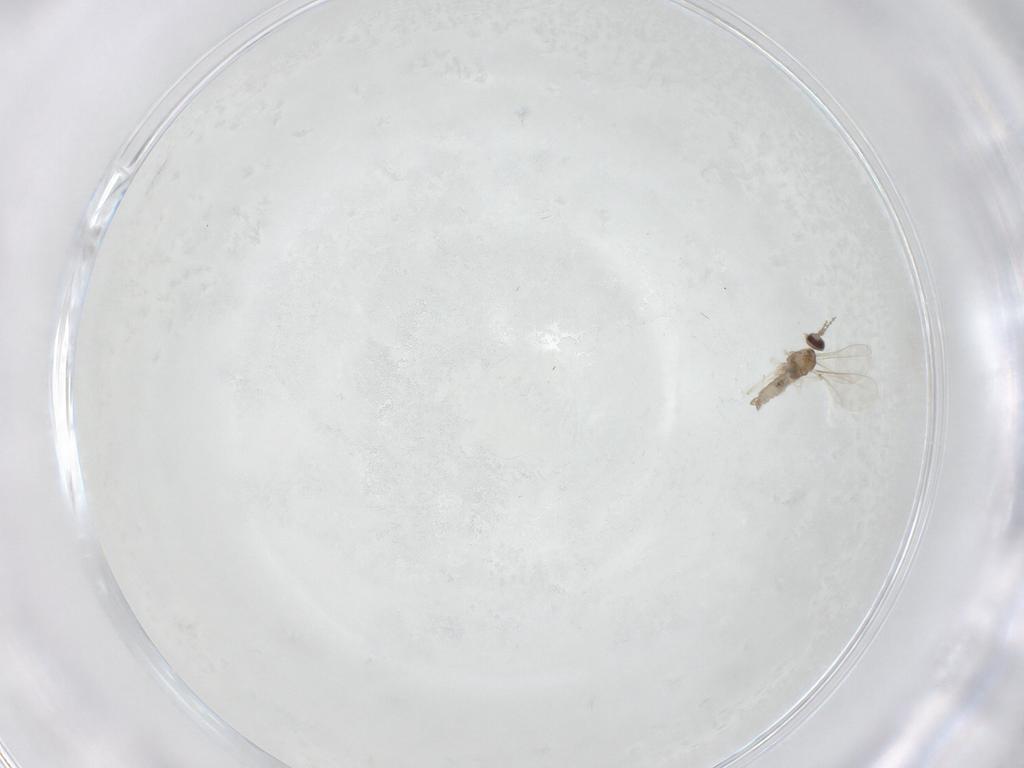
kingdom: Animalia
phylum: Arthropoda
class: Insecta
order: Diptera
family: Cecidomyiidae
